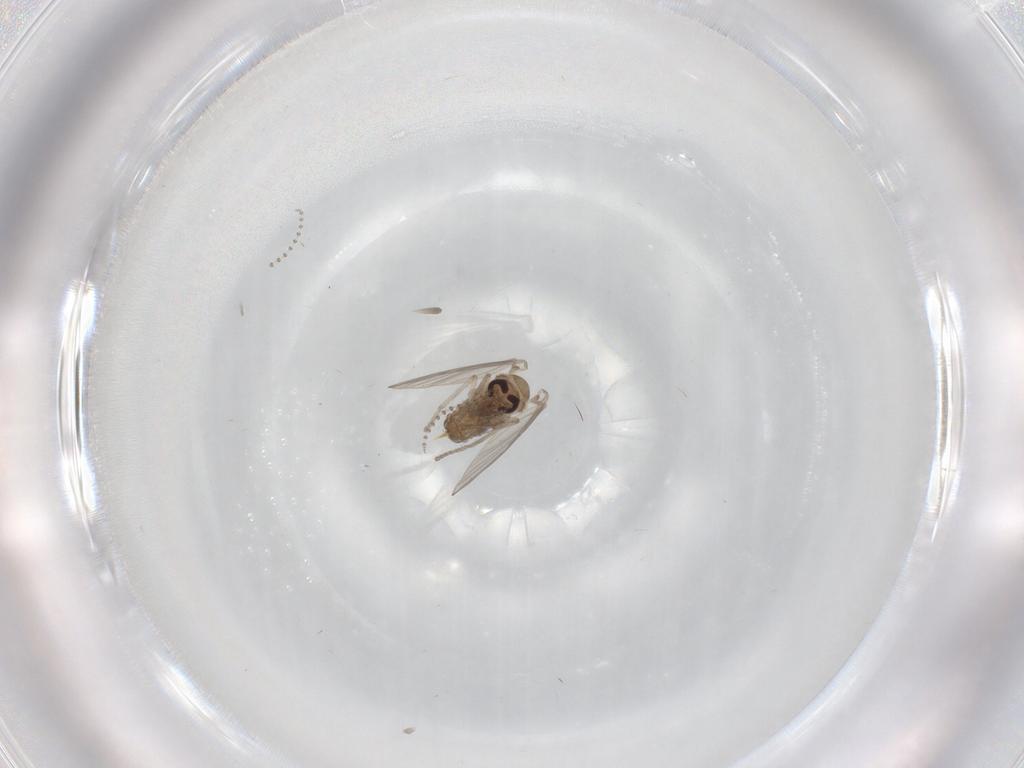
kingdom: Animalia
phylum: Arthropoda
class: Insecta
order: Diptera
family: Psychodidae
